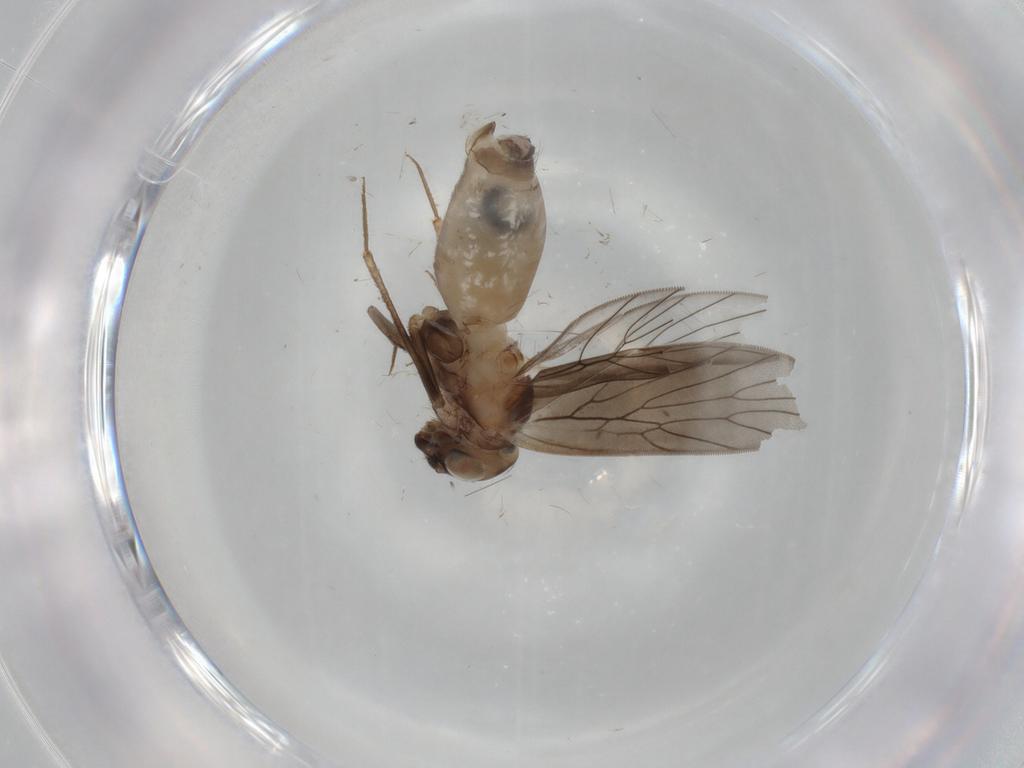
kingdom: Animalia
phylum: Arthropoda
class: Insecta
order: Psocodea
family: Lepidopsocidae
